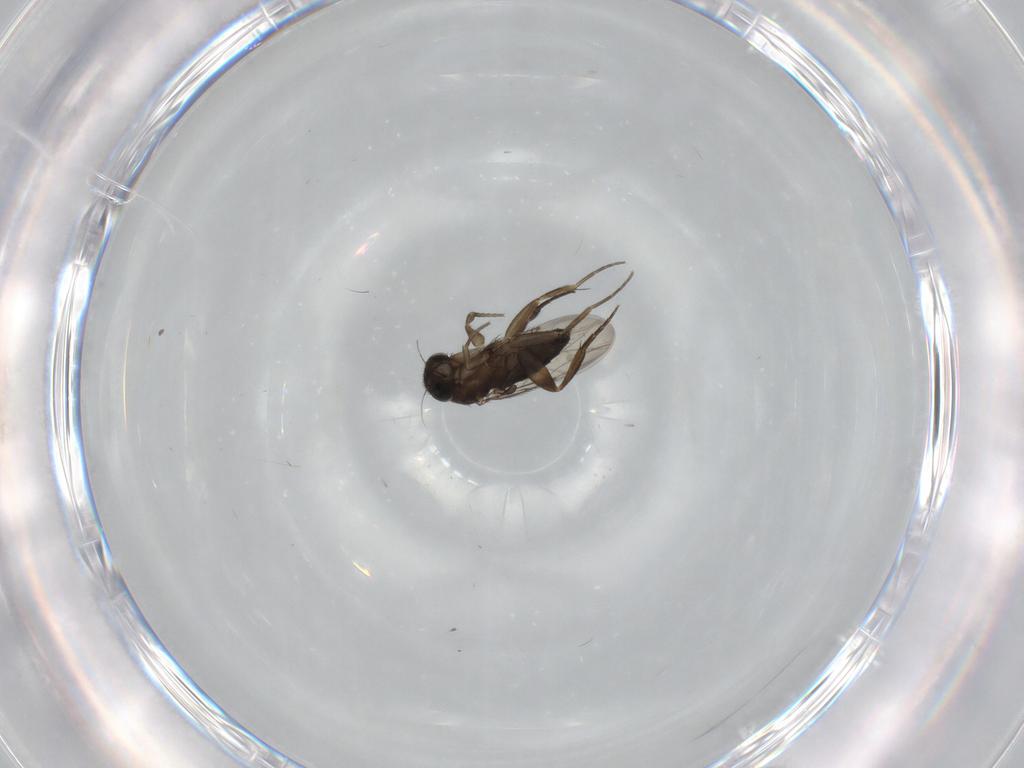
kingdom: Animalia
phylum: Arthropoda
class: Insecta
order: Diptera
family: Phoridae
